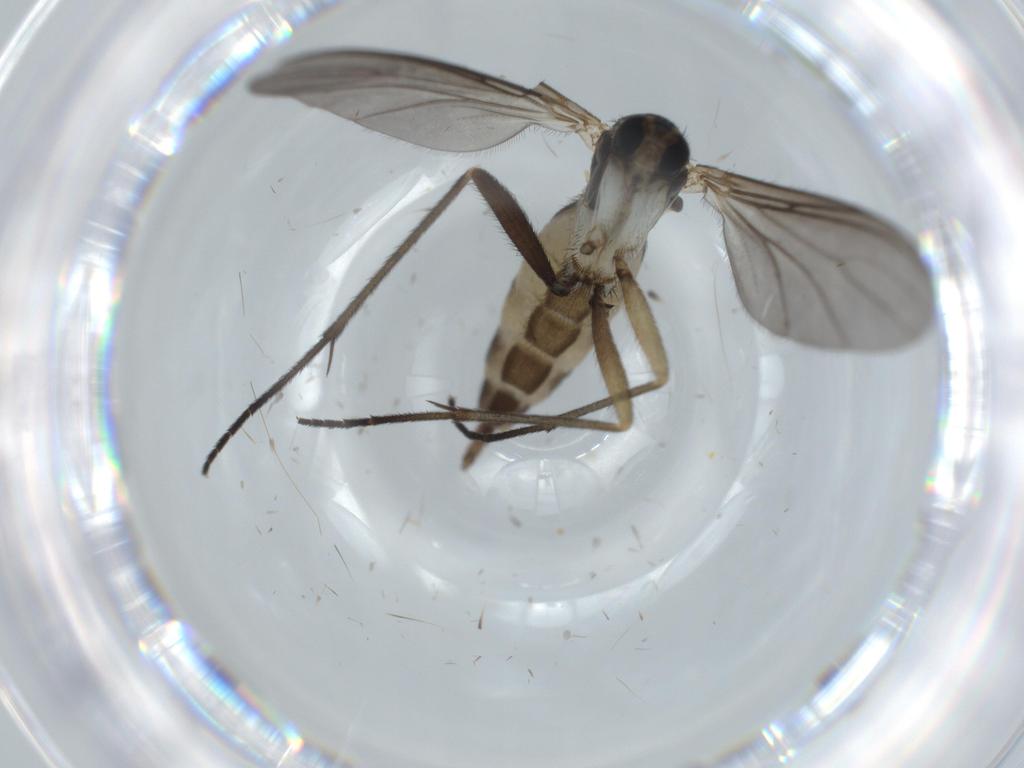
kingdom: Animalia
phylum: Arthropoda
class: Insecta
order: Diptera
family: Sciaridae
